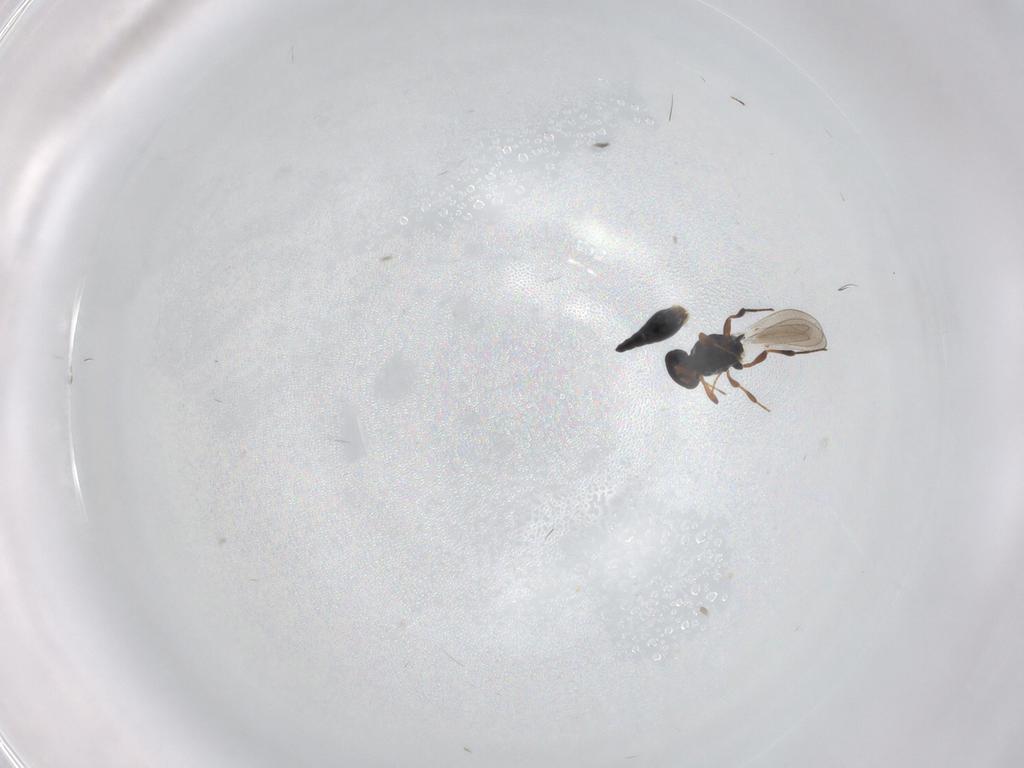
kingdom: Animalia
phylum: Arthropoda
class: Insecta
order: Hymenoptera
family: Platygastridae
